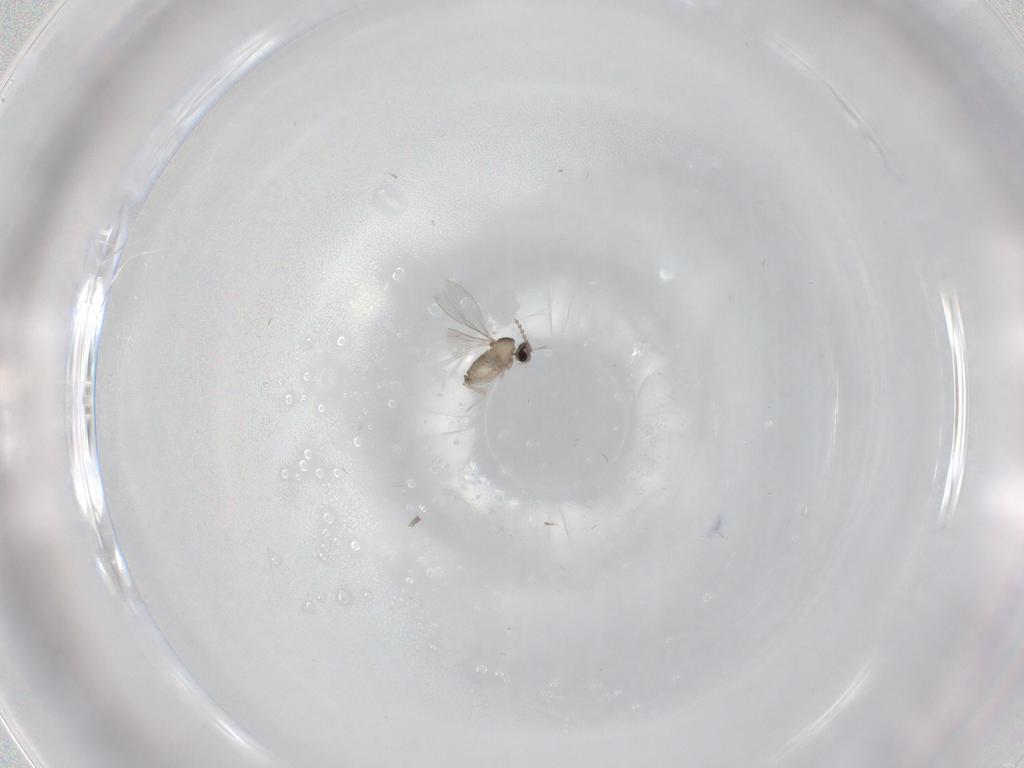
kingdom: Animalia
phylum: Arthropoda
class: Insecta
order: Diptera
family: Cecidomyiidae
